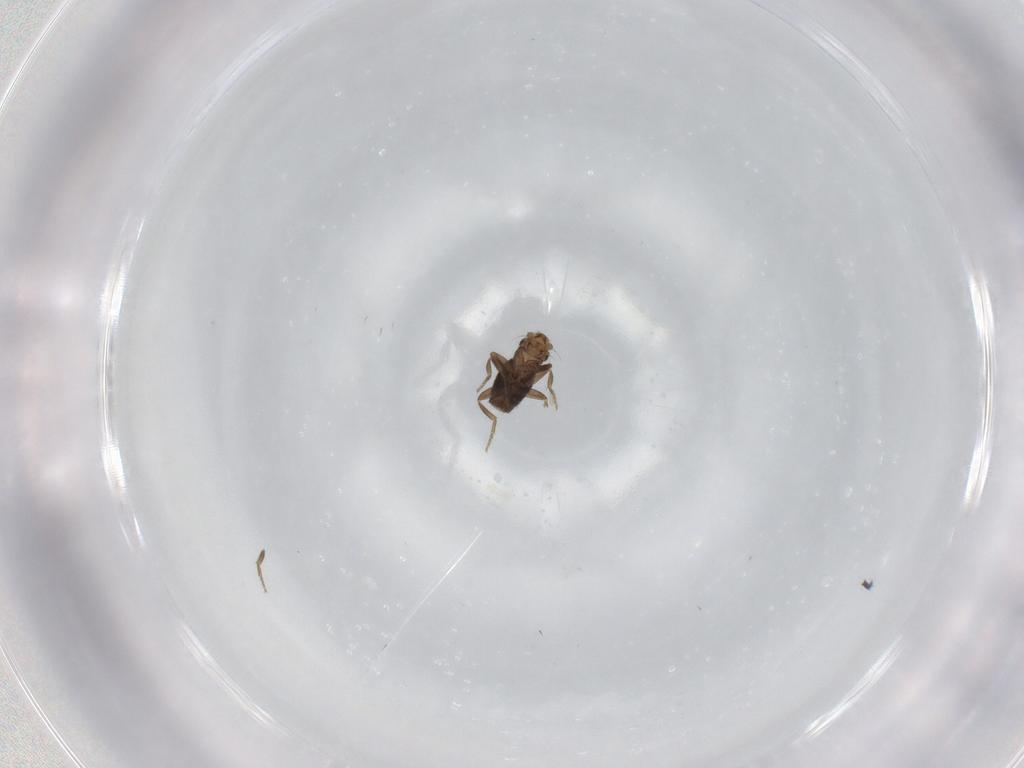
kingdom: Animalia
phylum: Arthropoda
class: Insecta
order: Diptera
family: Phoridae
